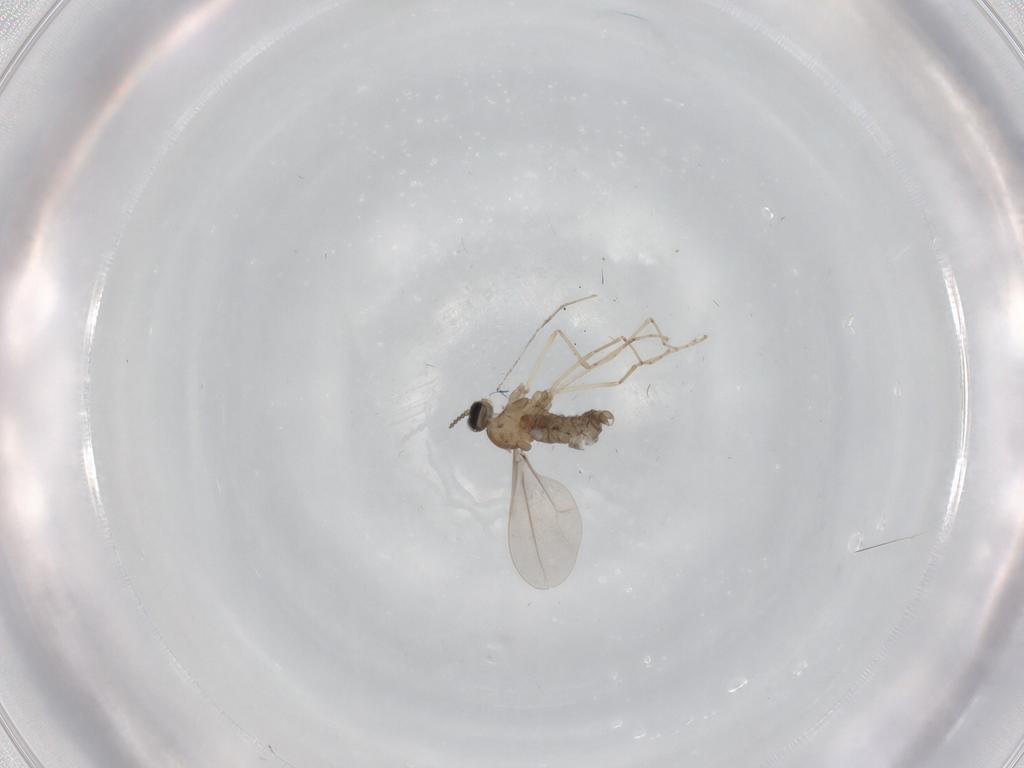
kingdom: Animalia
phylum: Arthropoda
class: Insecta
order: Diptera
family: Cecidomyiidae
